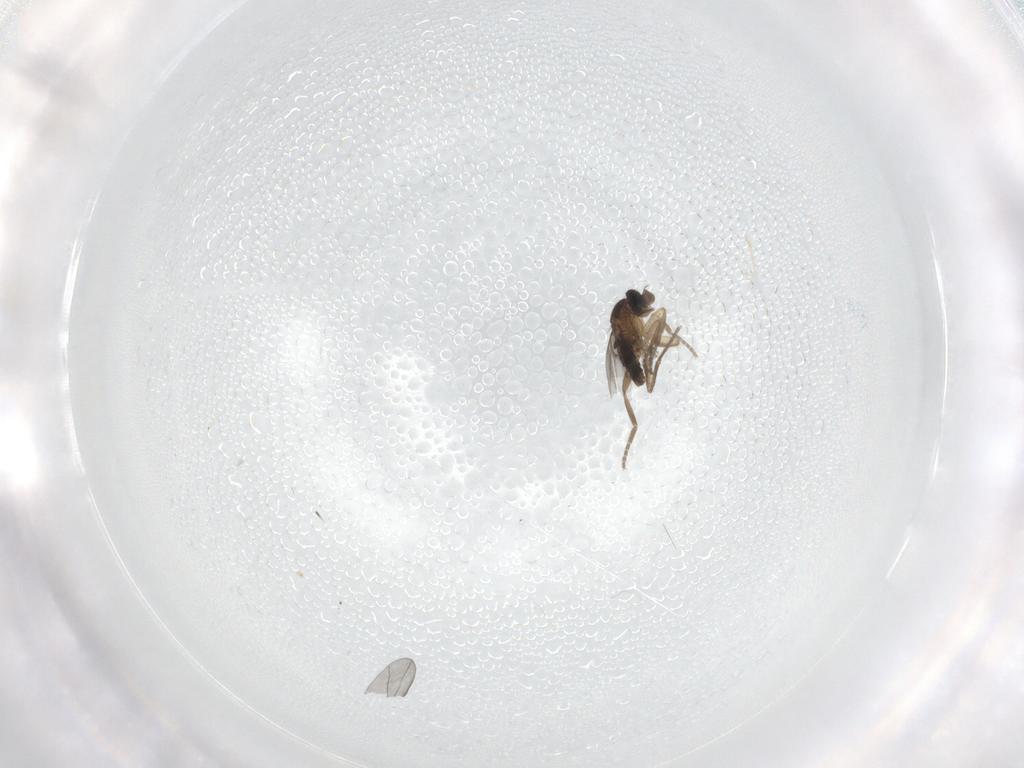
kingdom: Animalia
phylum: Arthropoda
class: Insecta
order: Diptera
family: Phoridae
